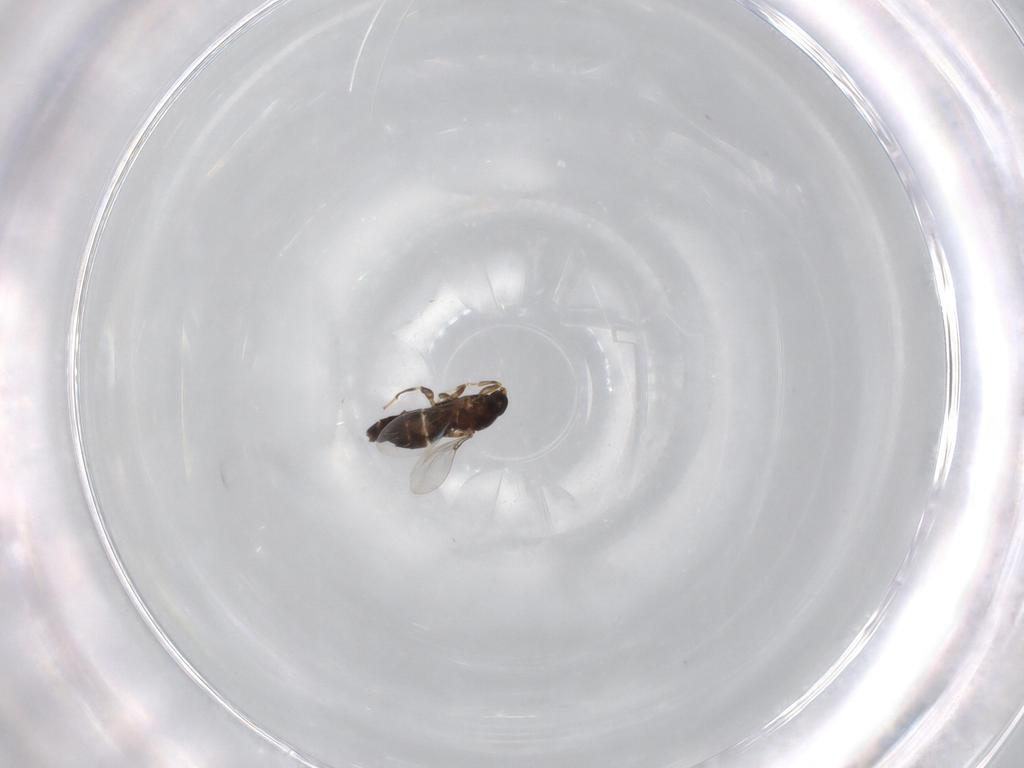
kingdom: Animalia
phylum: Arthropoda
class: Insecta
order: Diptera
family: Scatopsidae
